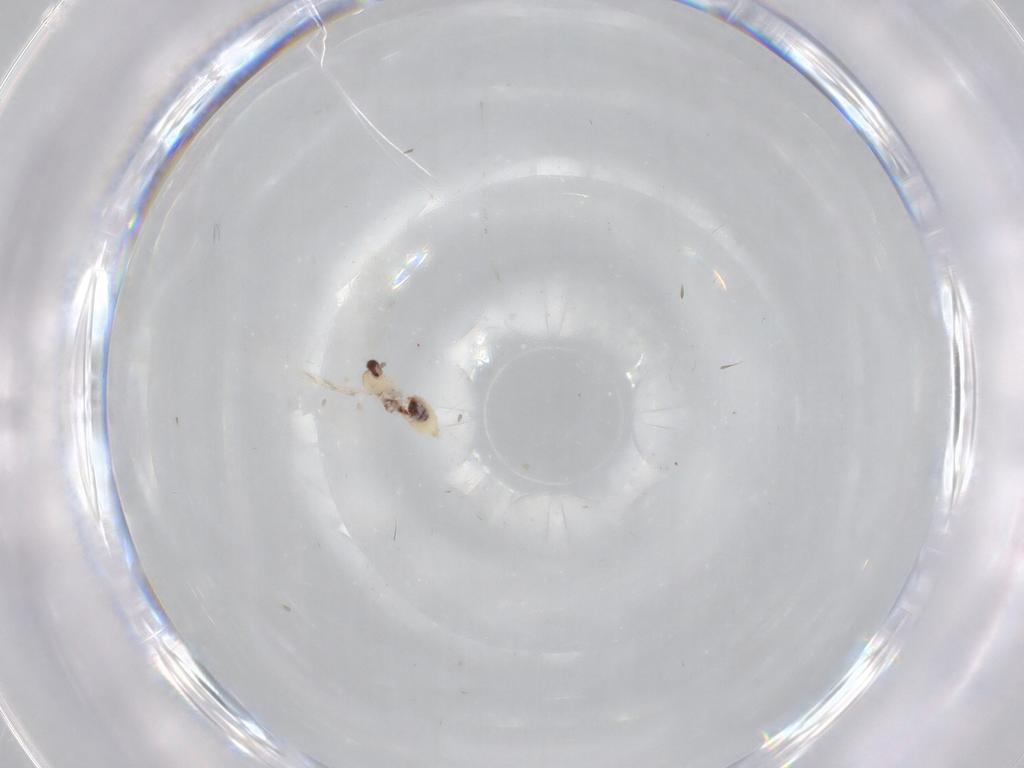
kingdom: Animalia
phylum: Arthropoda
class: Insecta
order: Diptera
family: Cecidomyiidae
